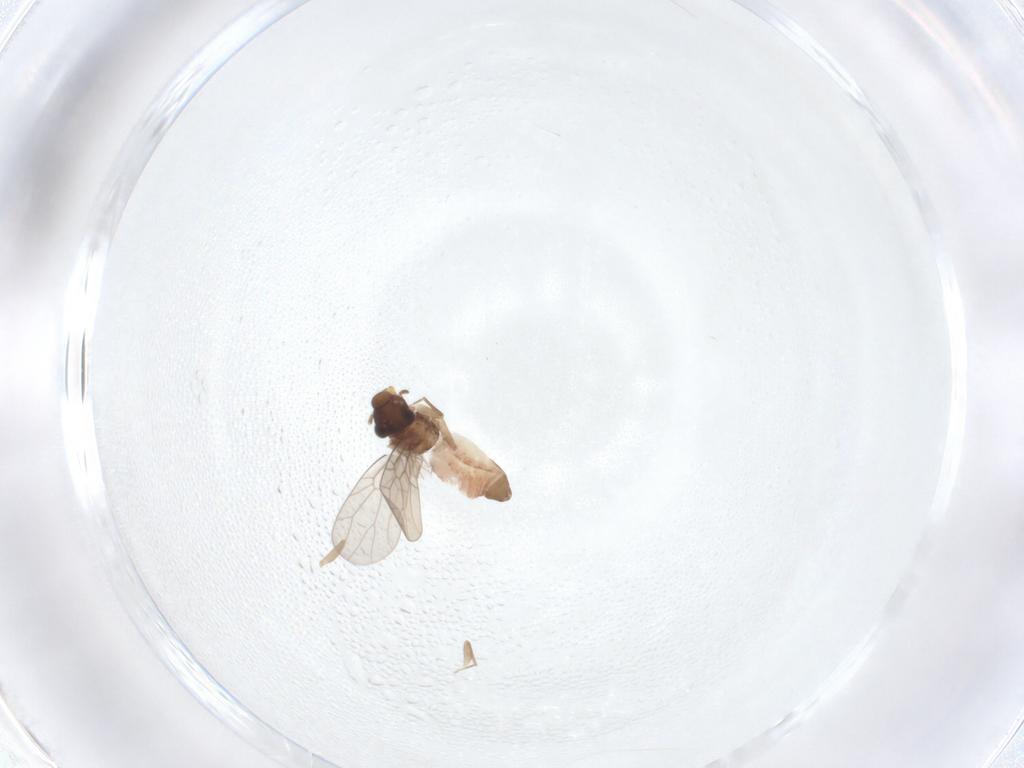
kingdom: Animalia
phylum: Arthropoda
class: Insecta
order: Psocodea
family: Lepidopsocidae
